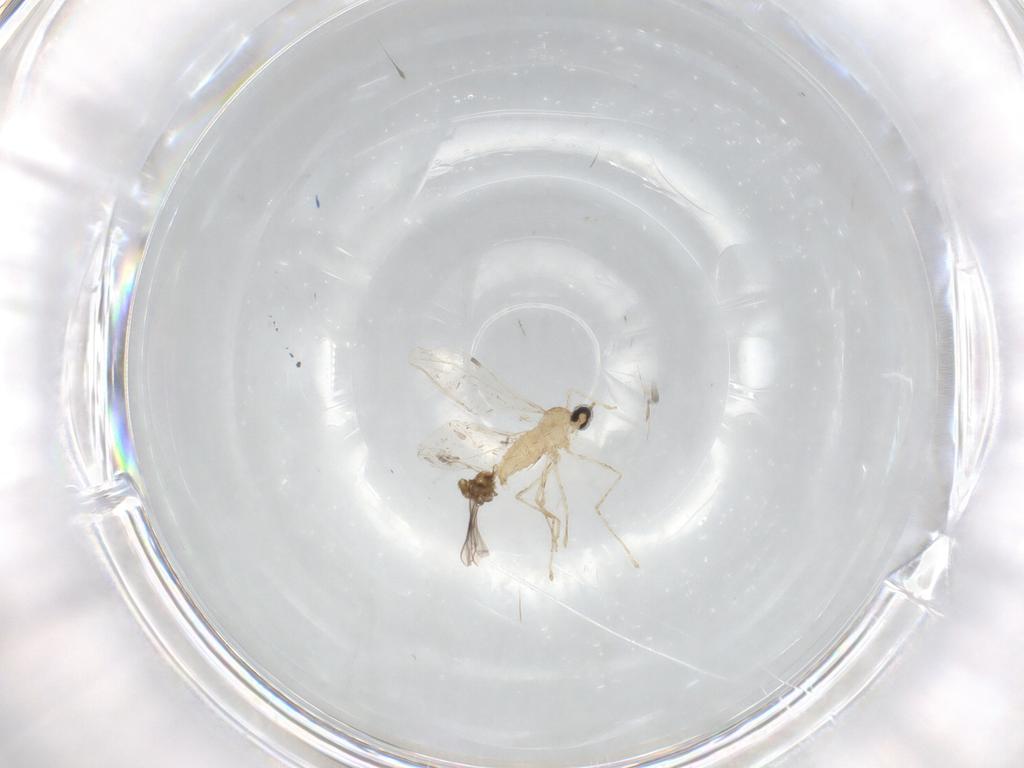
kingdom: Animalia
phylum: Arthropoda
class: Insecta
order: Diptera
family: Chironomidae
